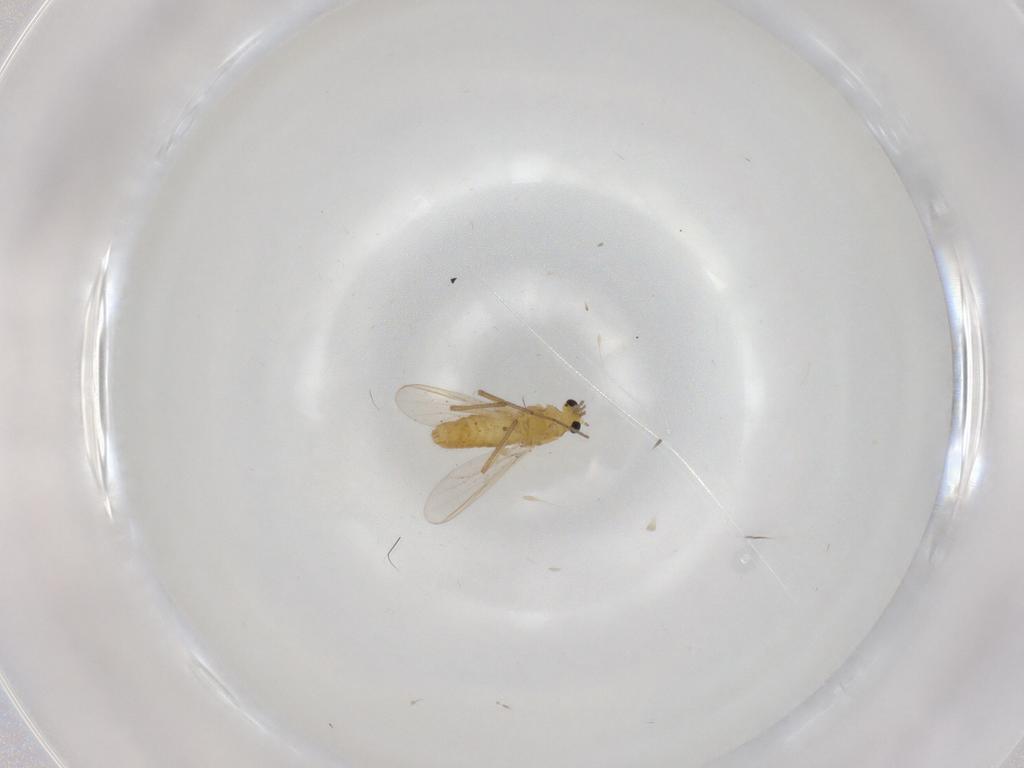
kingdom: Animalia
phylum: Arthropoda
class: Insecta
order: Diptera
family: Chironomidae
